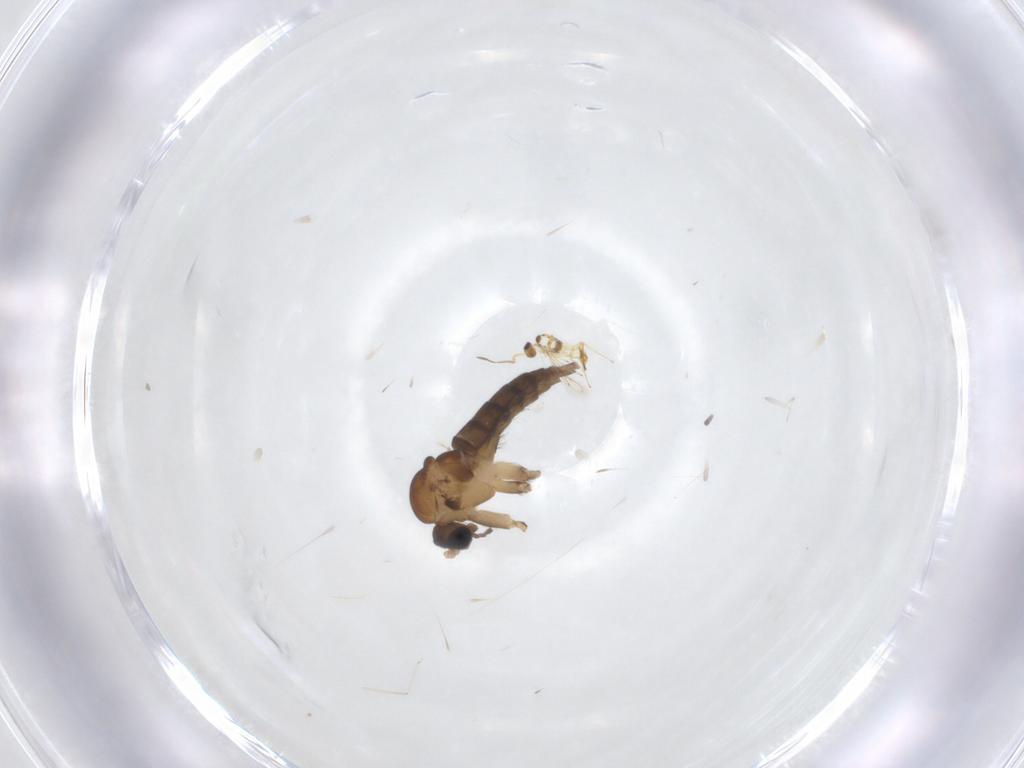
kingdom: Animalia
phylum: Arthropoda
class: Insecta
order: Diptera
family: Sciaridae
